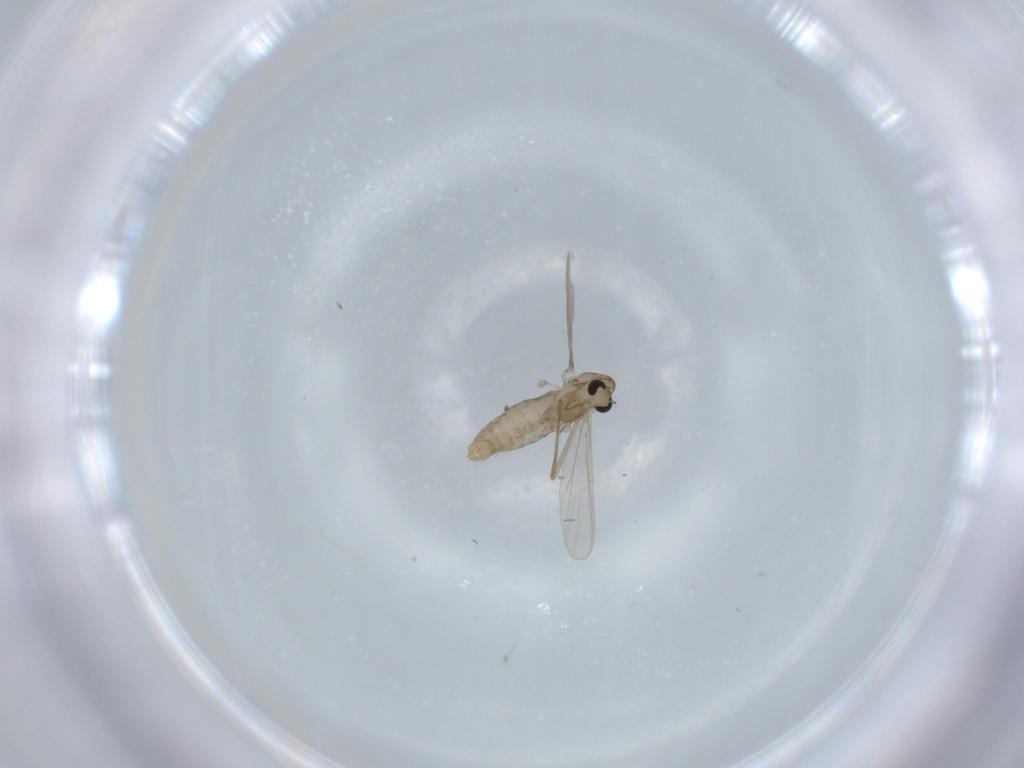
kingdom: Animalia
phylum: Arthropoda
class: Insecta
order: Diptera
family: Chironomidae
